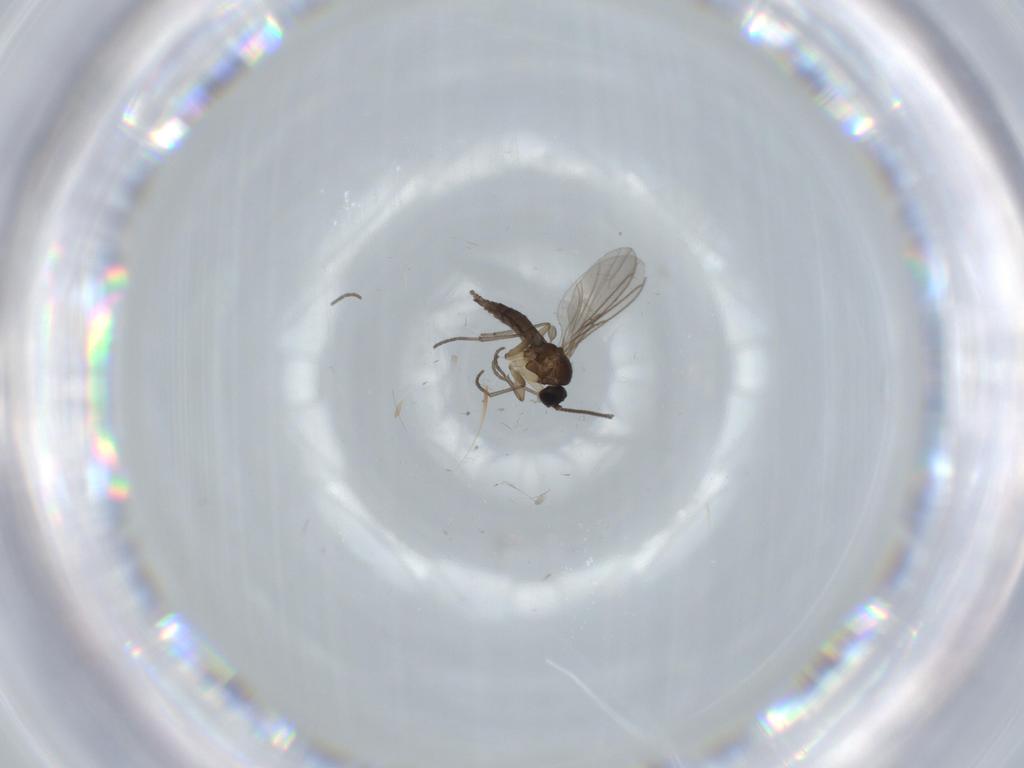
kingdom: Animalia
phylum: Arthropoda
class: Insecta
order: Diptera
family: Sciaridae
